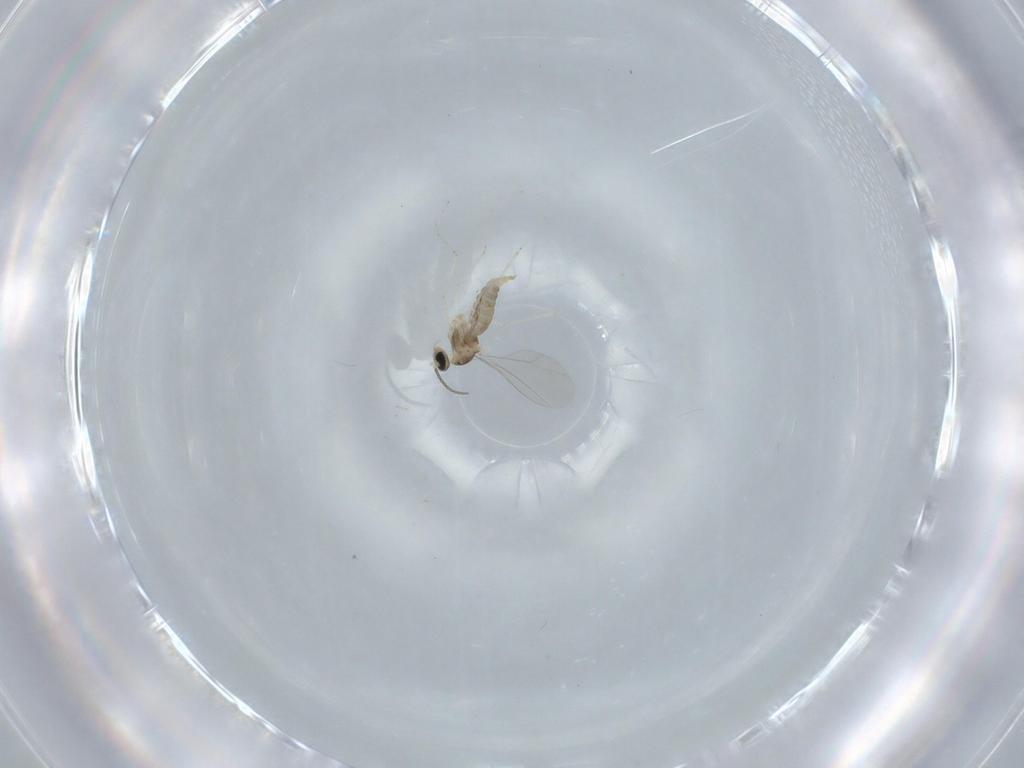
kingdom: Animalia
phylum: Arthropoda
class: Insecta
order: Diptera
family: Cecidomyiidae
